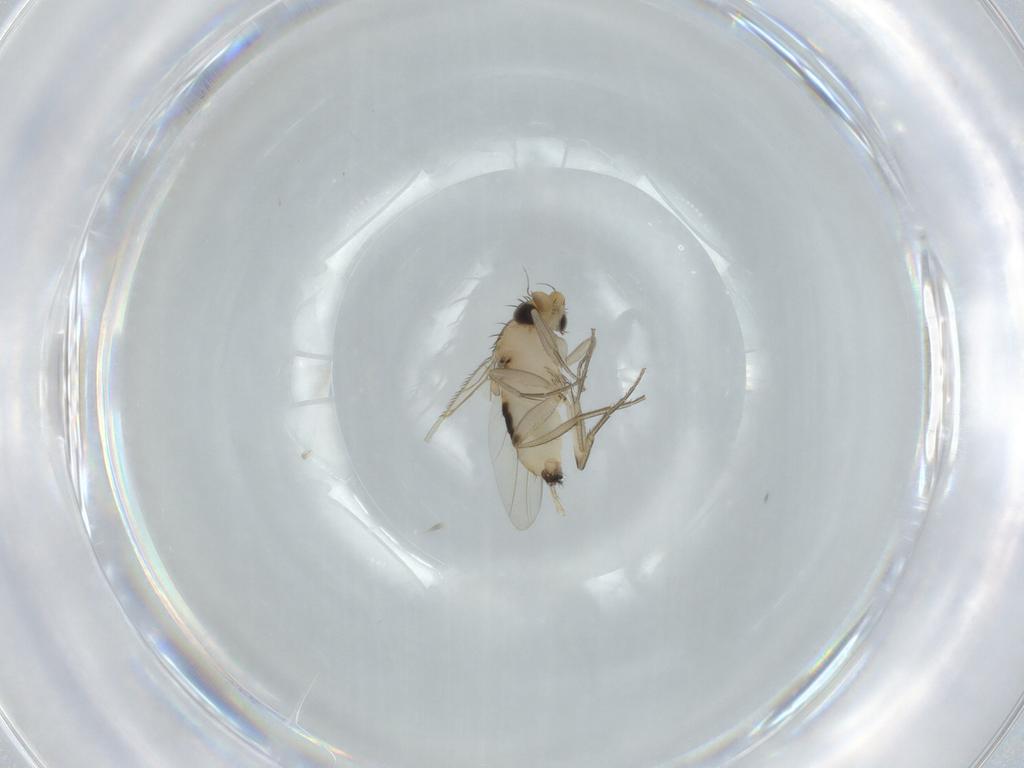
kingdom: Animalia
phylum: Arthropoda
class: Insecta
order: Diptera
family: Phoridae
